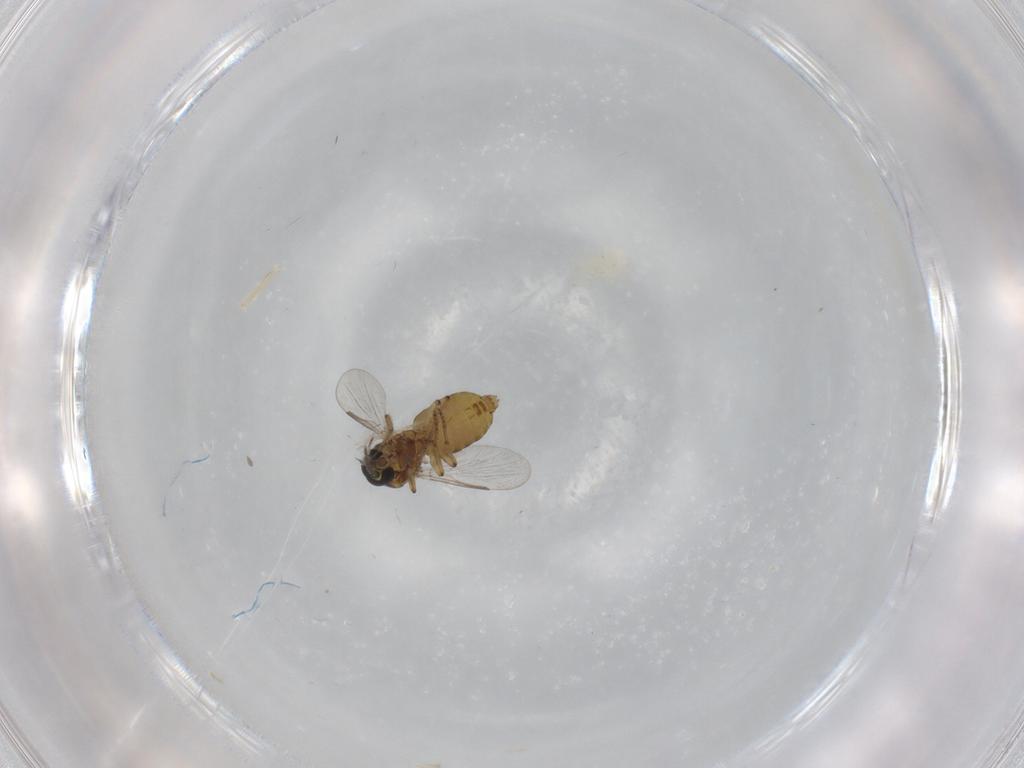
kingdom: Animalia
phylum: Arthropoda
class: Insecta
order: Diptera
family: Ceratopogonidae
